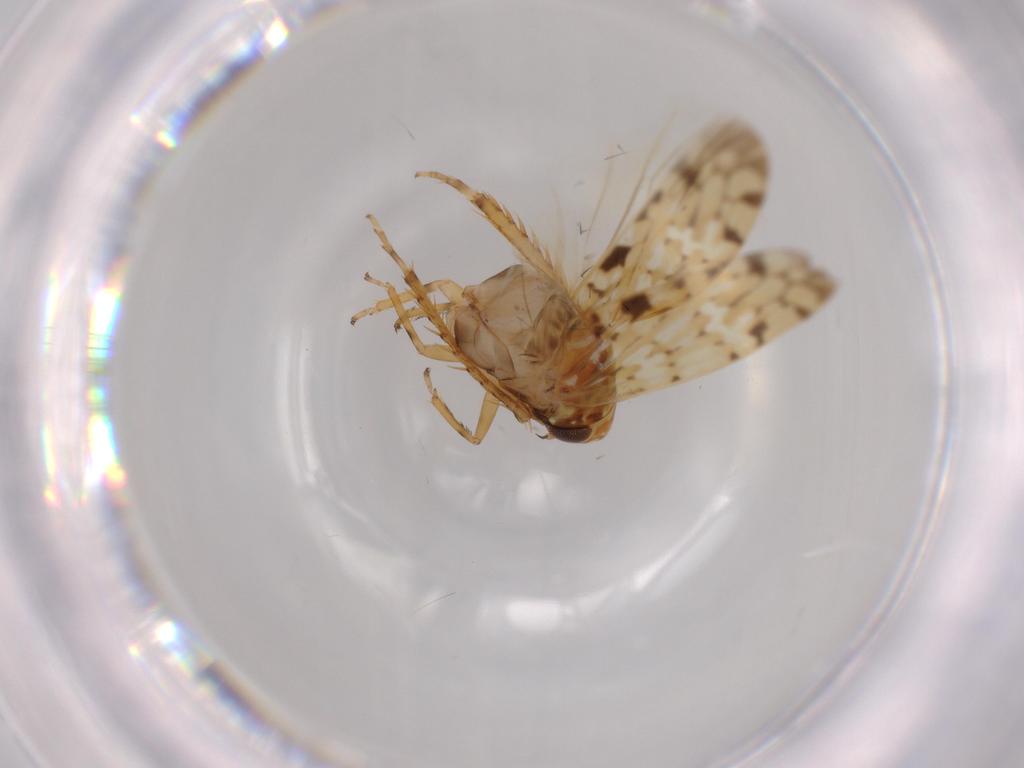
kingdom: Animalia
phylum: Arthropoda
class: Insecta
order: Hemiptera
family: Cicadellidae
